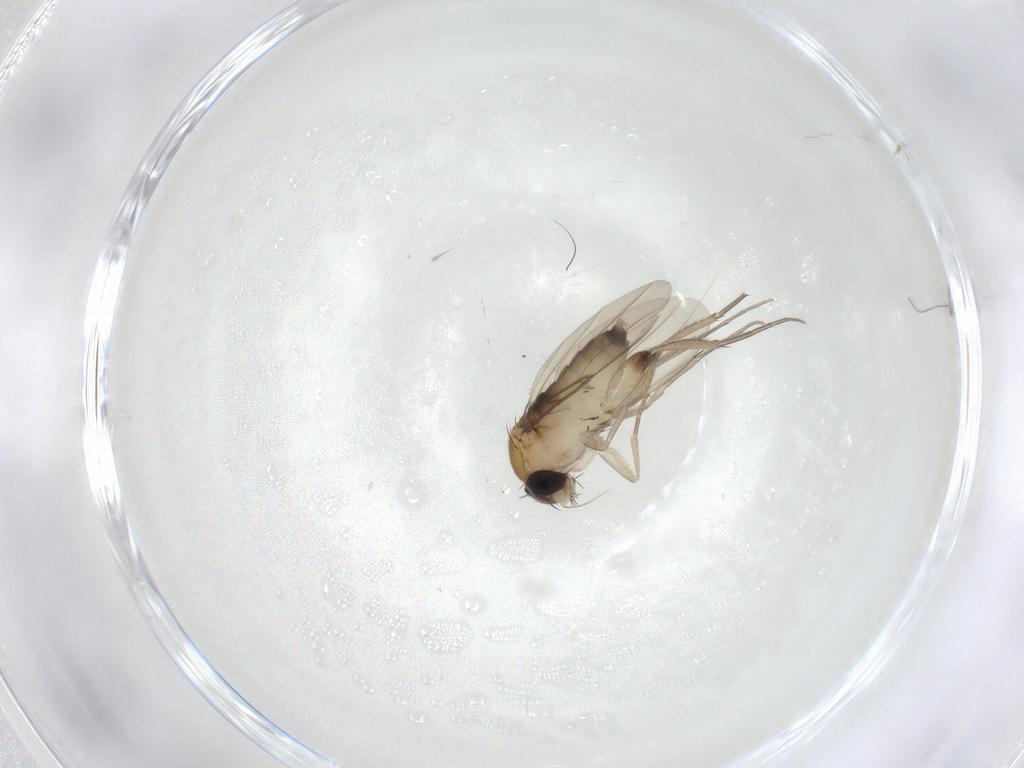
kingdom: Animalia
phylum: Arthropoda
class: Insecta
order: Diptera
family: Phoridae
